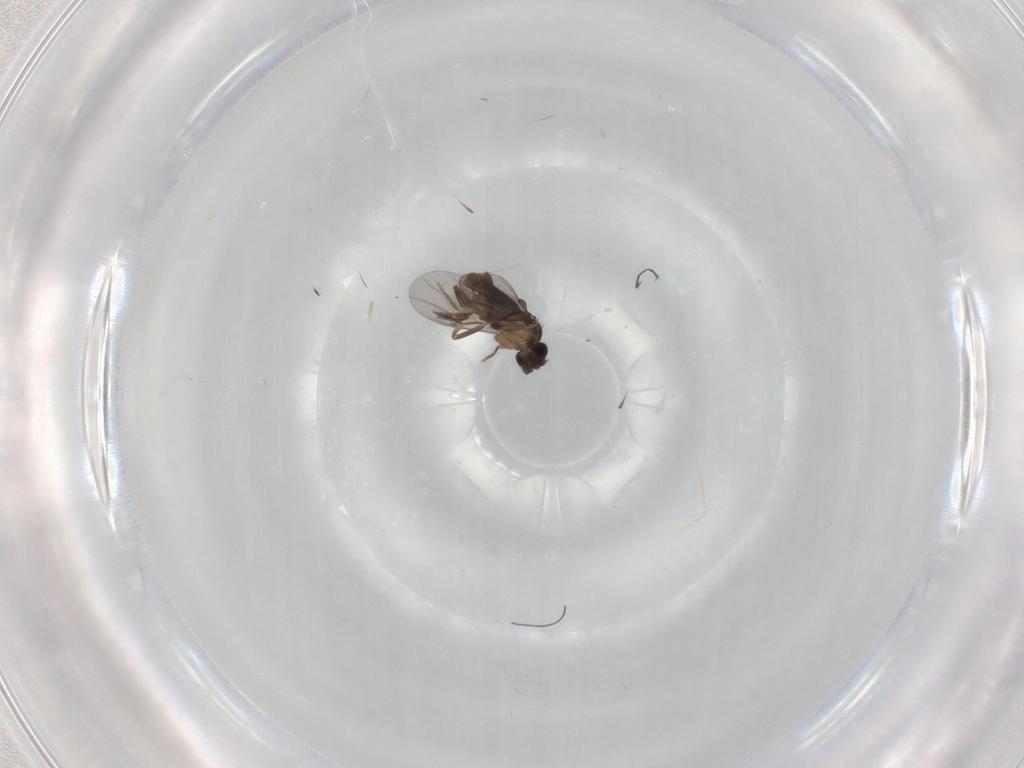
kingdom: Animalia
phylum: Arthropoda
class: Insecta
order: Diptera
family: Phoridae
